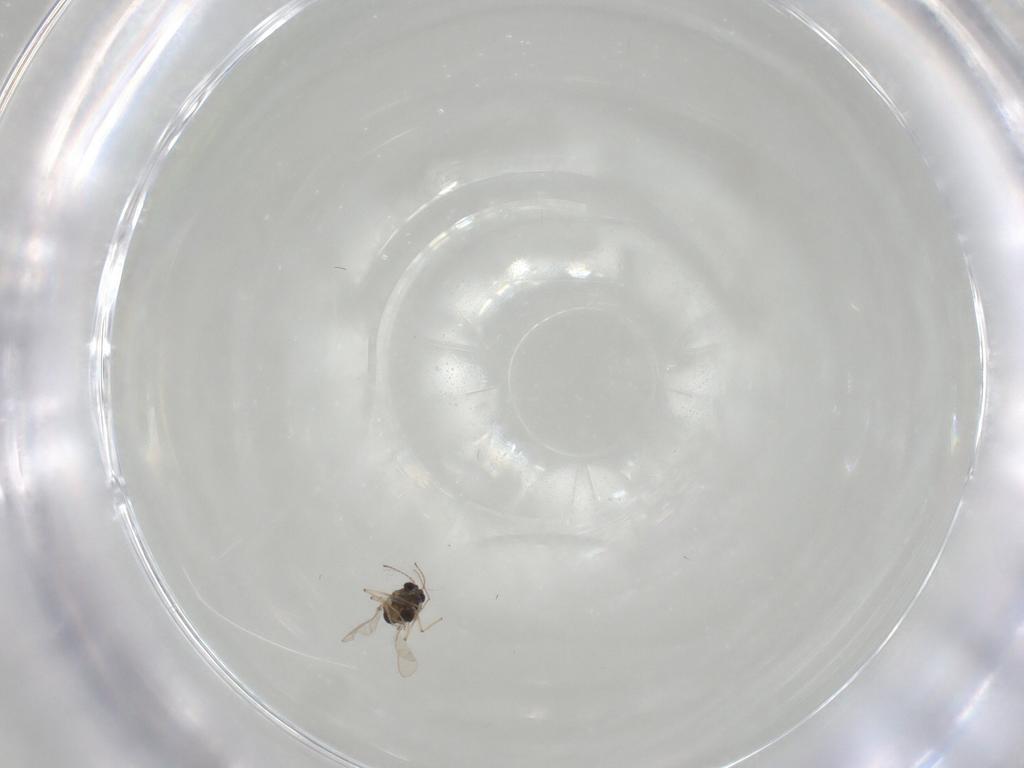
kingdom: Animalia
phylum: Arthropoda
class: Insecta
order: Diptera
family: Chironomidae
